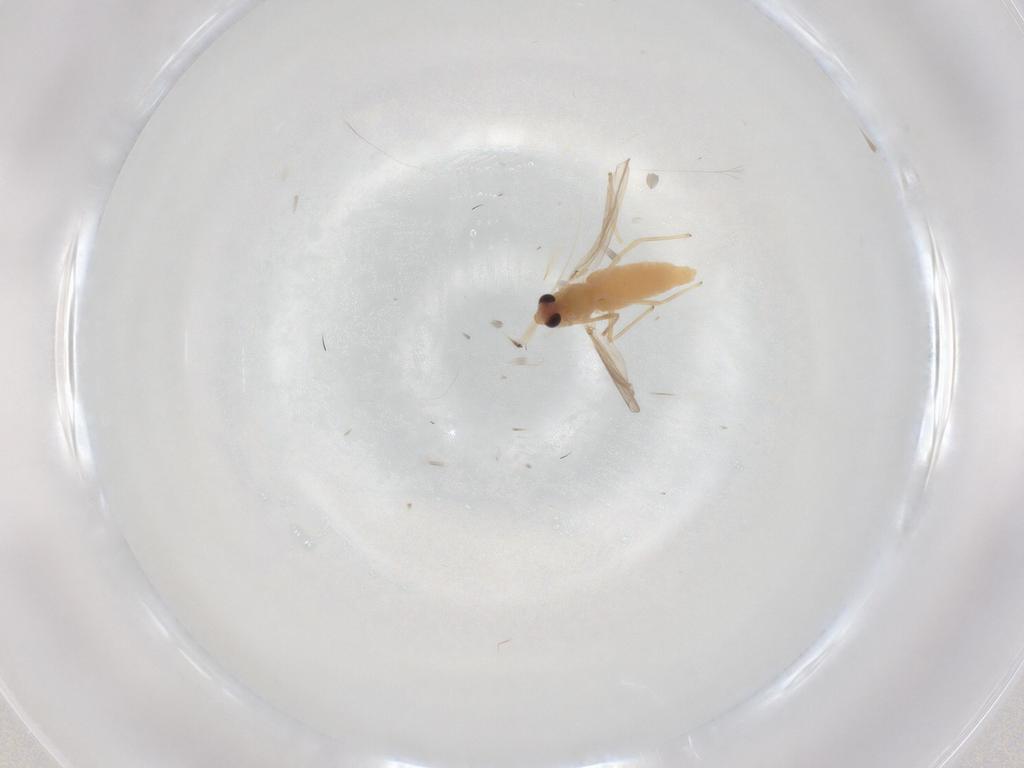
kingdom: Animalia
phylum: Arthropoda
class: Insecta
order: Diptera
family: Chironomidae
